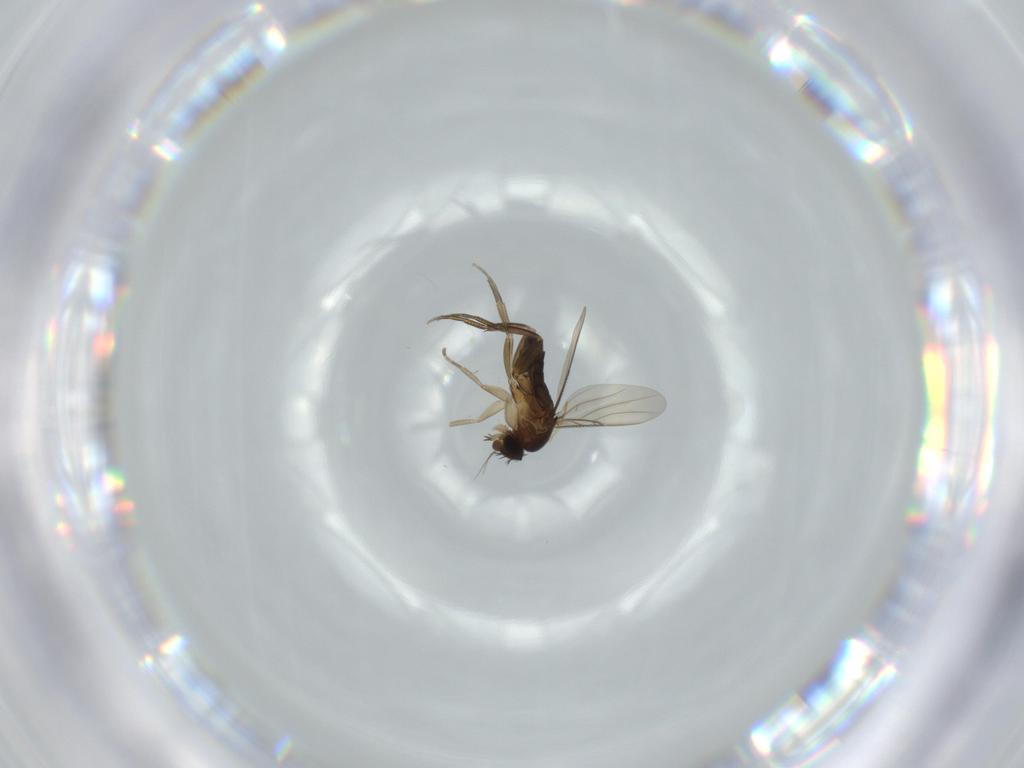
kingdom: Animalia
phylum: Arthropoda
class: Insecta
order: Diptera
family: Phoridae
